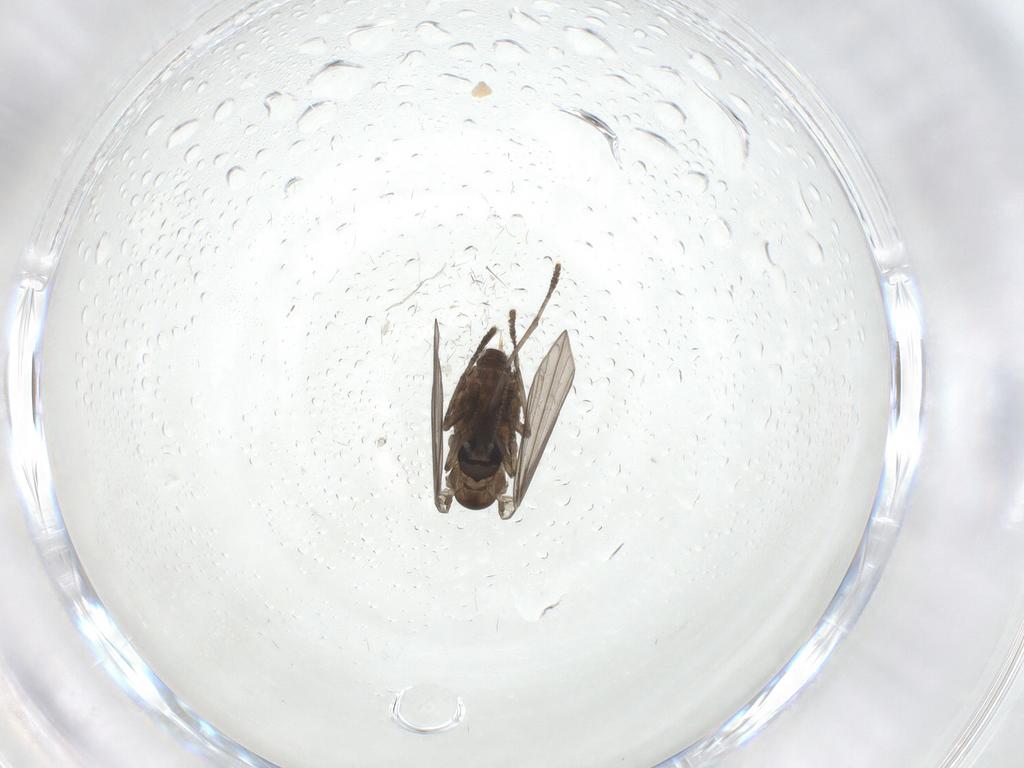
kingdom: Animalia
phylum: Arthropoda
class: Insecta
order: Diptera
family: Psychodidae
